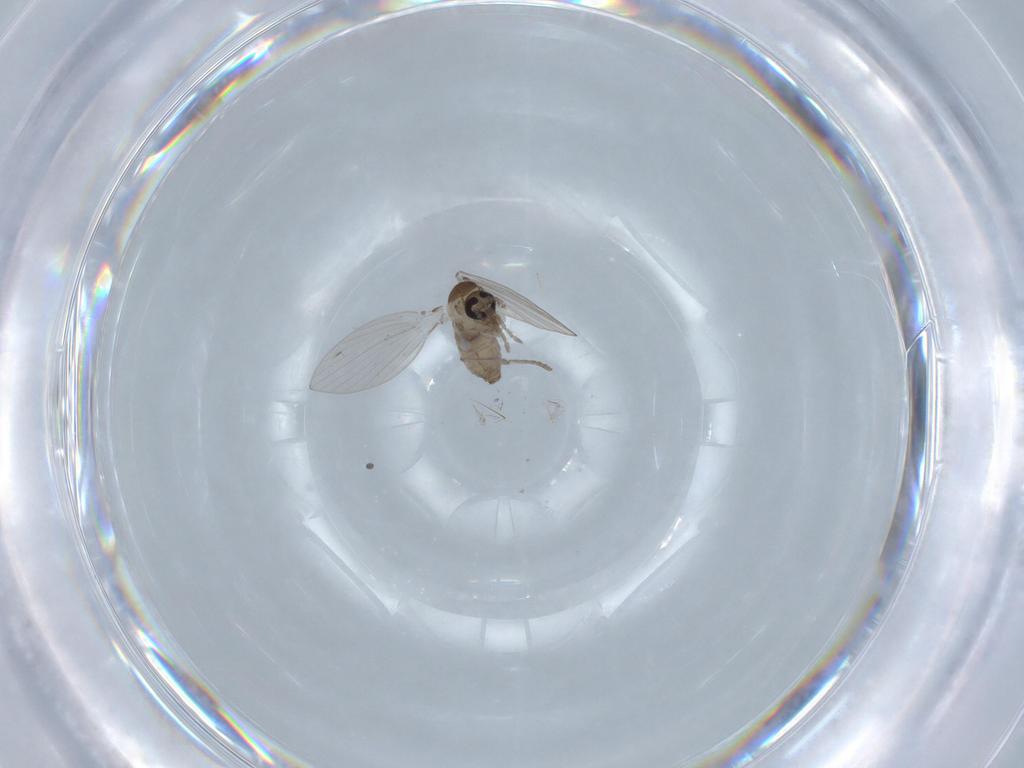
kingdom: Animalia
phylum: Arthropoda
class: Insecta
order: Diptera
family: Psychodidae
